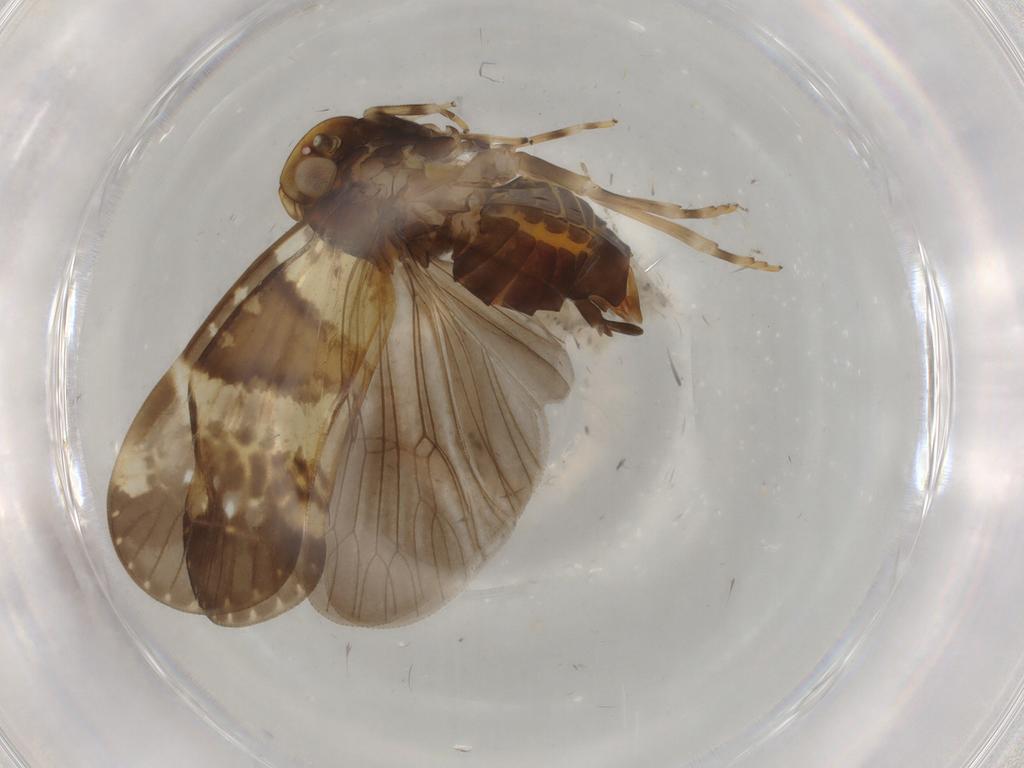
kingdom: Animalia
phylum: Arthropoda
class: Insecta
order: Hemiptera
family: Cixiidae
